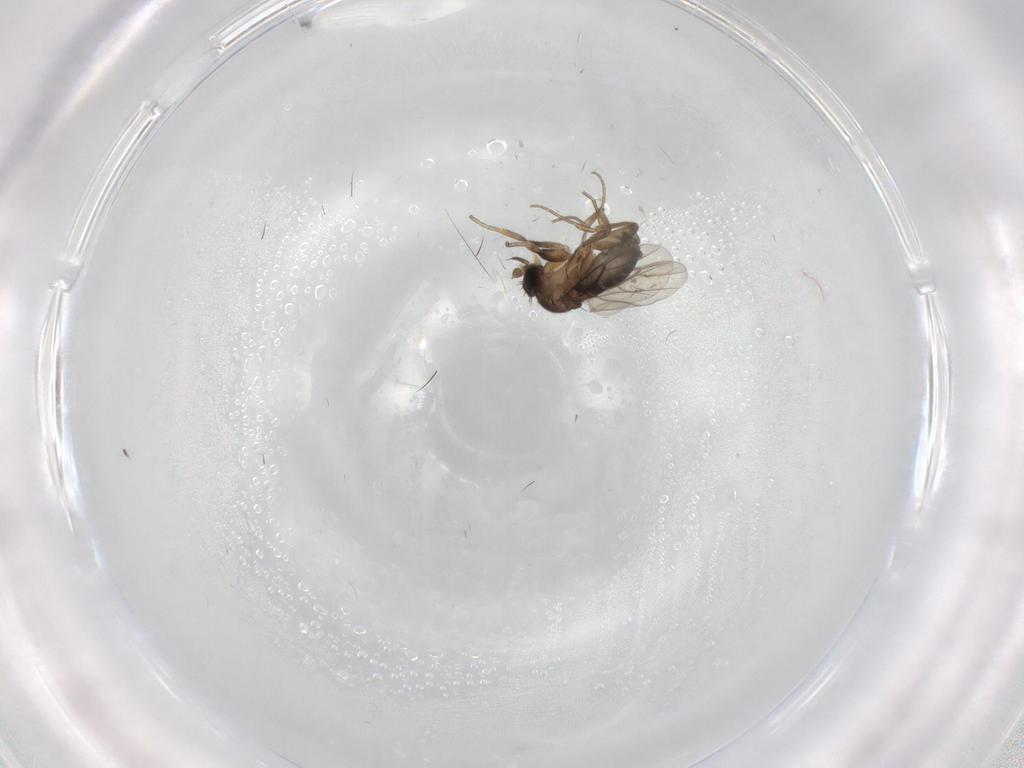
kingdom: Animalia
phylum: Arthropoda
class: Insecta
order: Diptera
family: Phoridae
